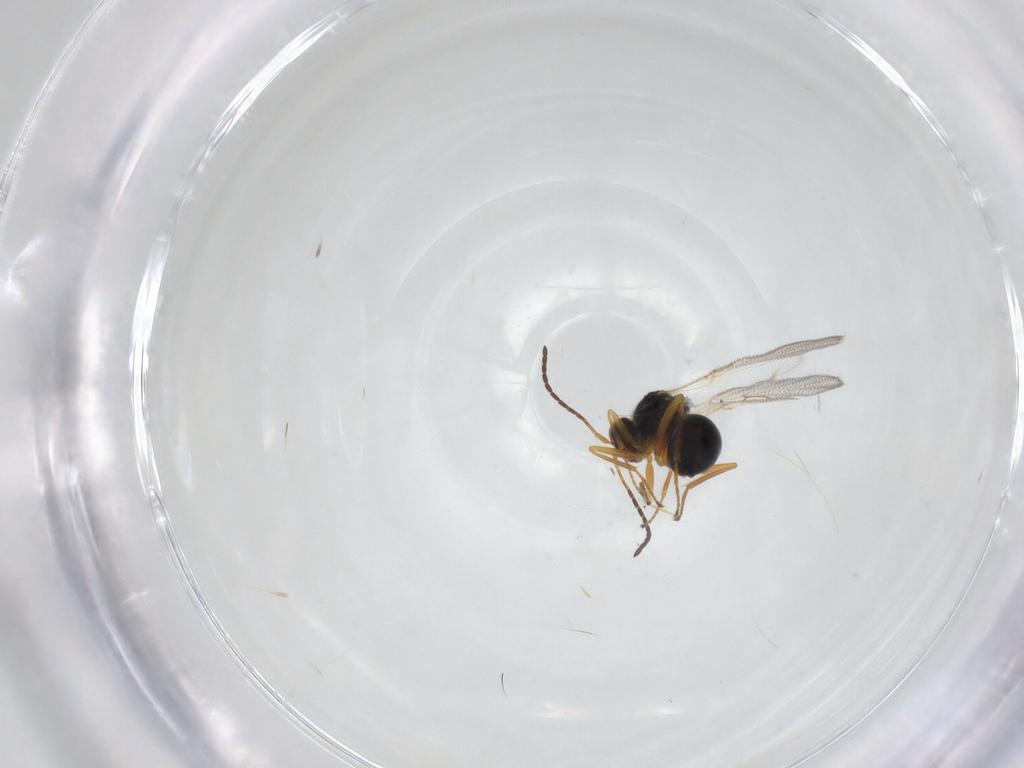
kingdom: Animalia
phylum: Arthropoda
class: Insecta
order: Hymenoptera
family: Figitidae
